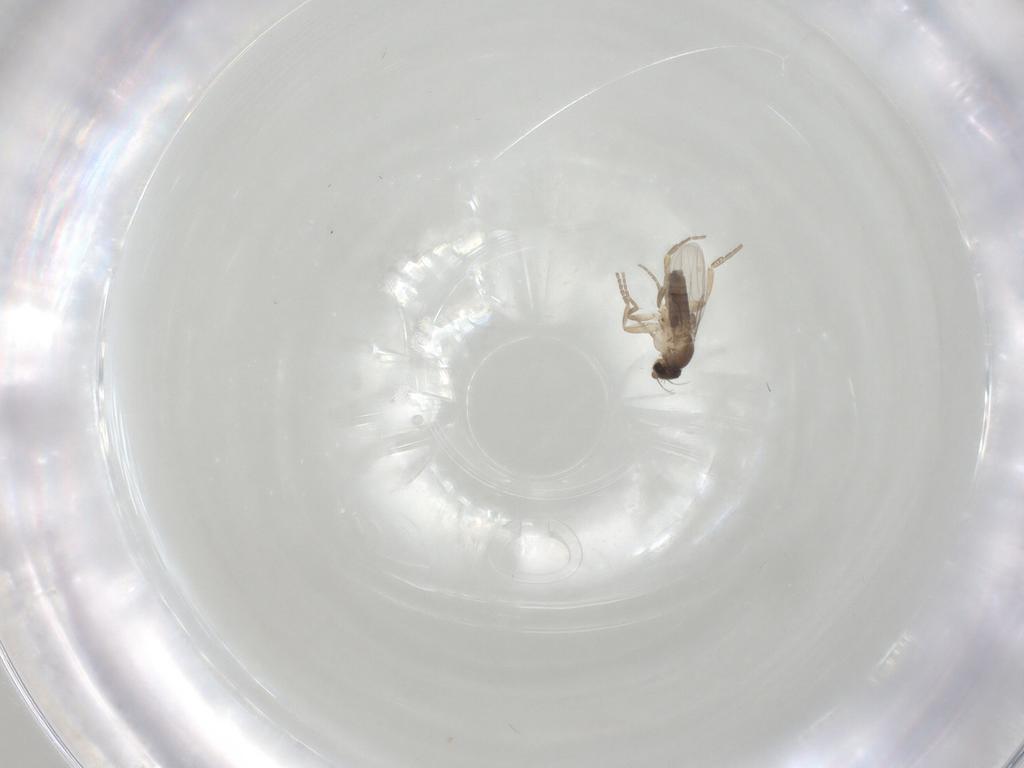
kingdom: Animalia
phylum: Arthropoda
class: Insecta
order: Diptera
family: Phoridae
